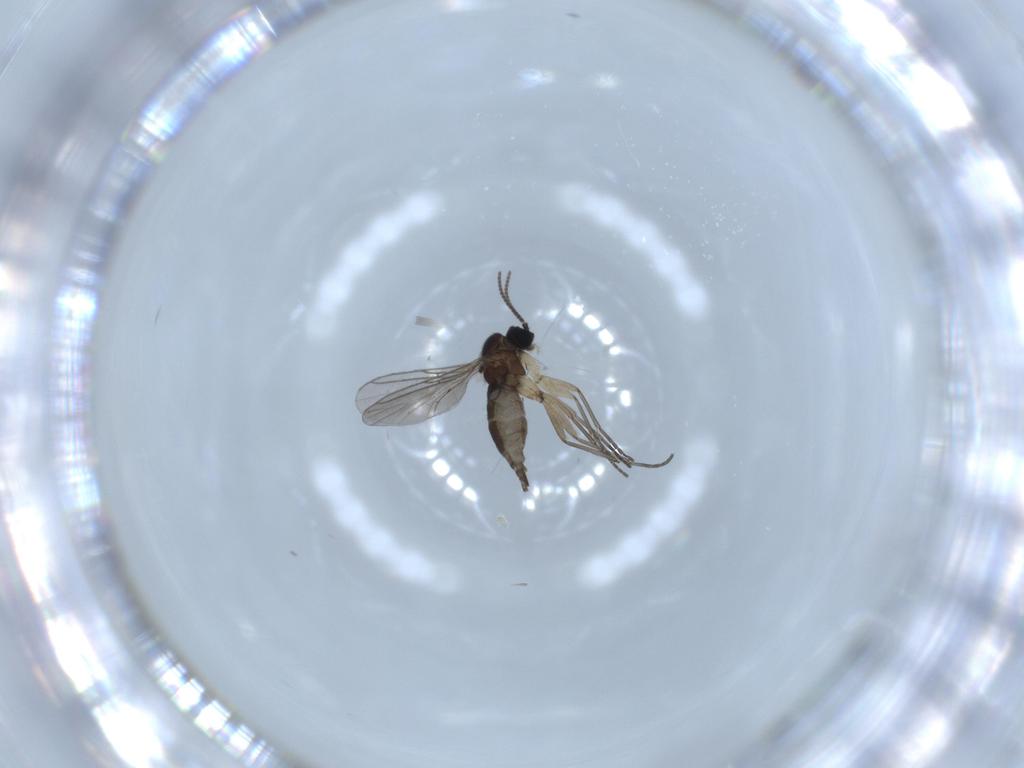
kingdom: Animalia
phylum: Arthropoda
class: Insecta
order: Diptera
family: Sciaridae
